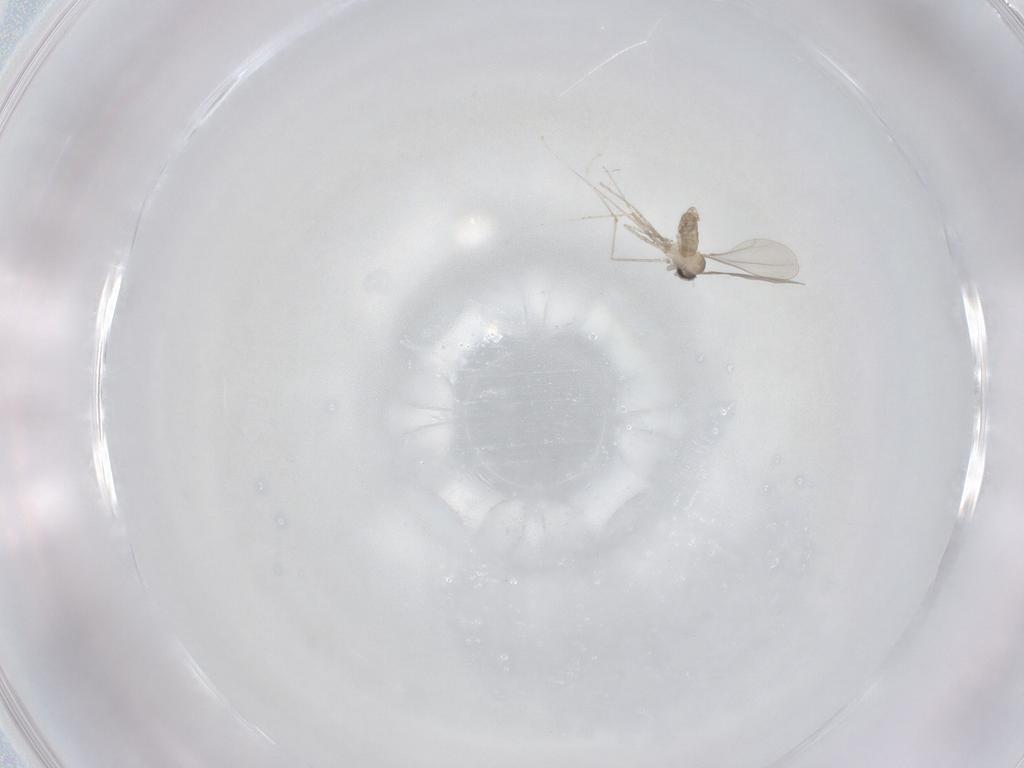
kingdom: Animalia
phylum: Arthropoda
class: Insecta
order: Diptera
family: Cecidomyiidae
